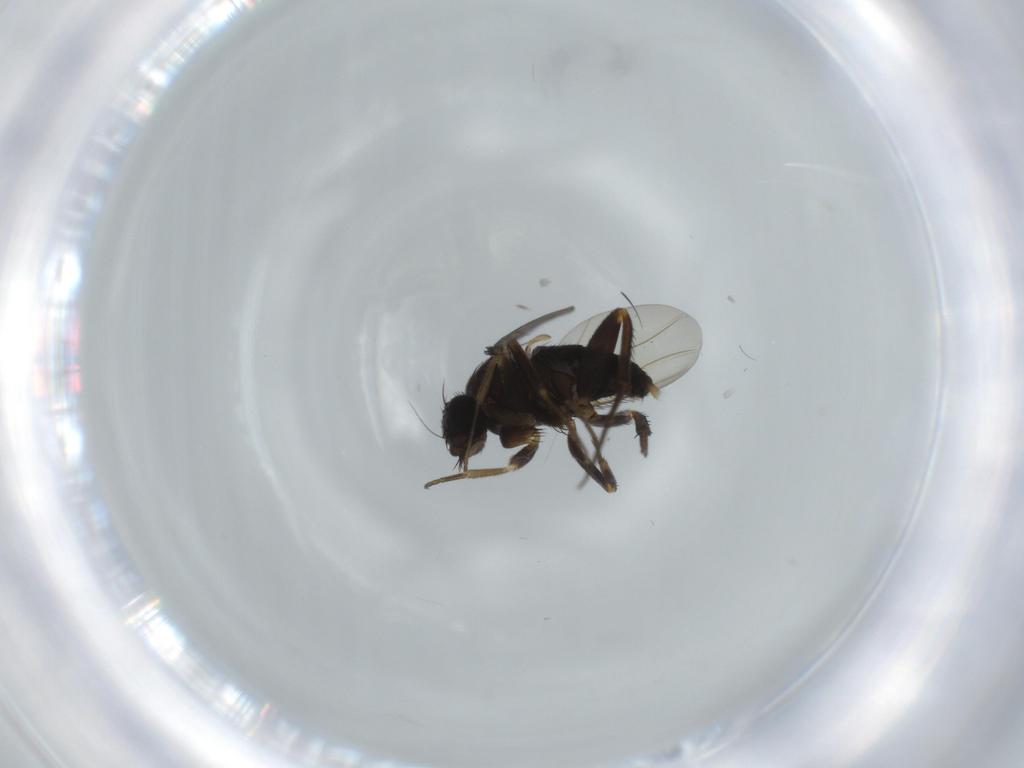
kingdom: Animalia
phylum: Arthropoda
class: Insecta
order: Diptera
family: Phoridae
